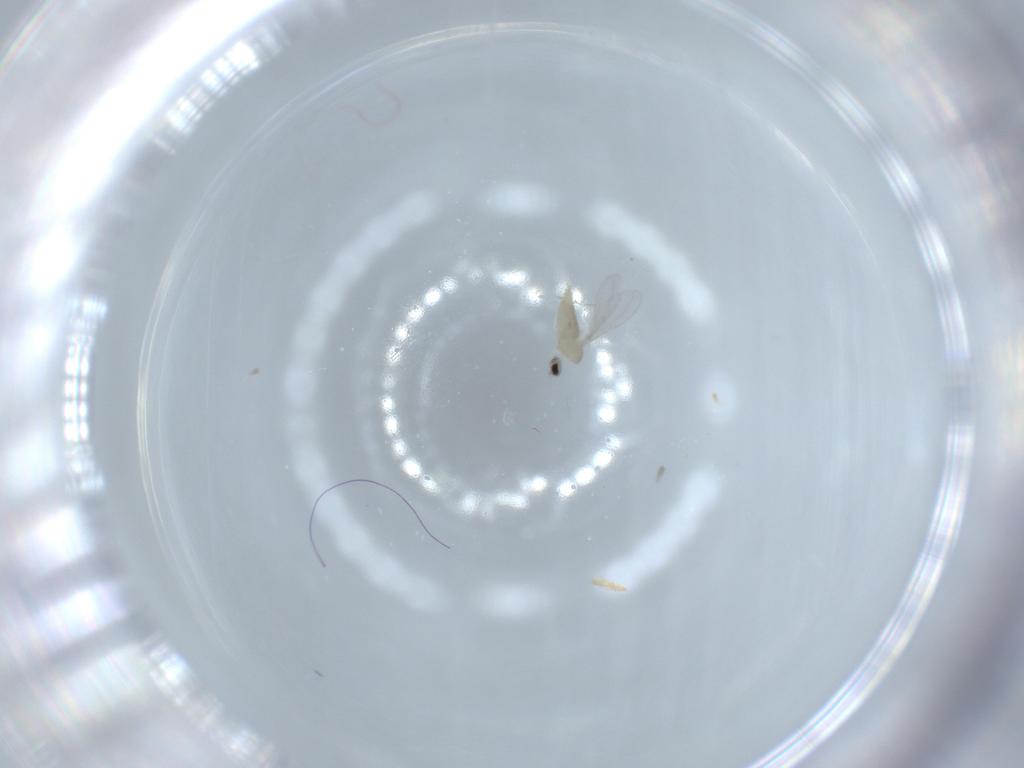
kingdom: Animalia
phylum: Arthropoda
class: Insecta
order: Diptera
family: Cecidomyiidae
